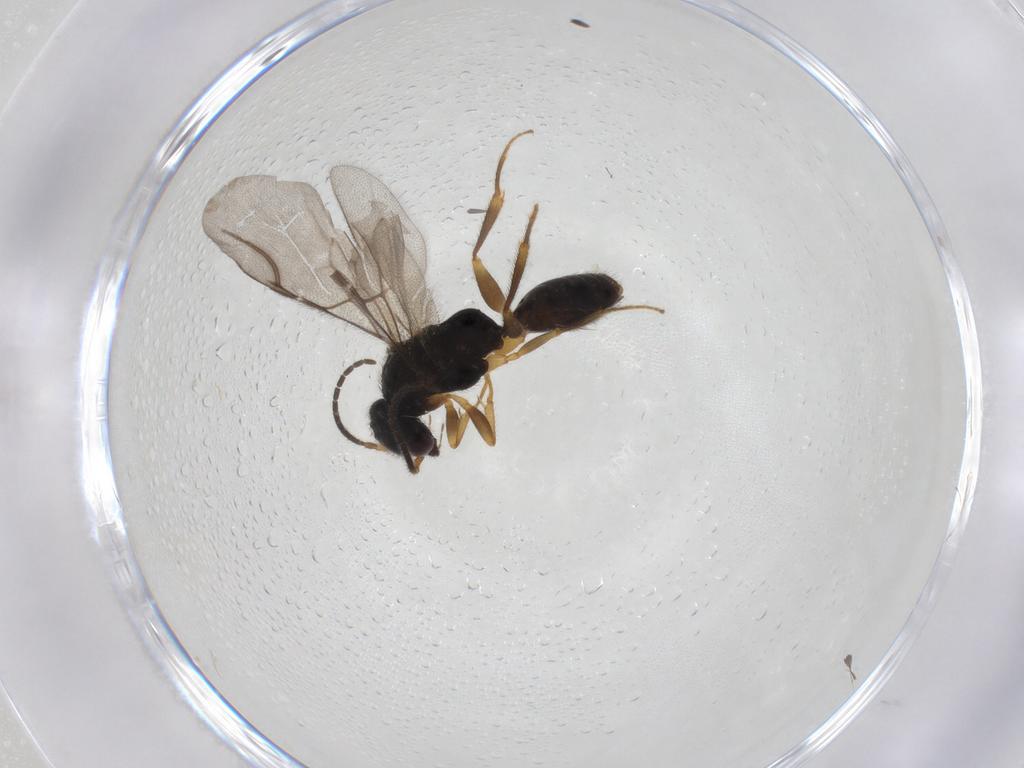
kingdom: Animalia
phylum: Arthropoda
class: Insecta
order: Hymenoptera
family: Bethylidae
